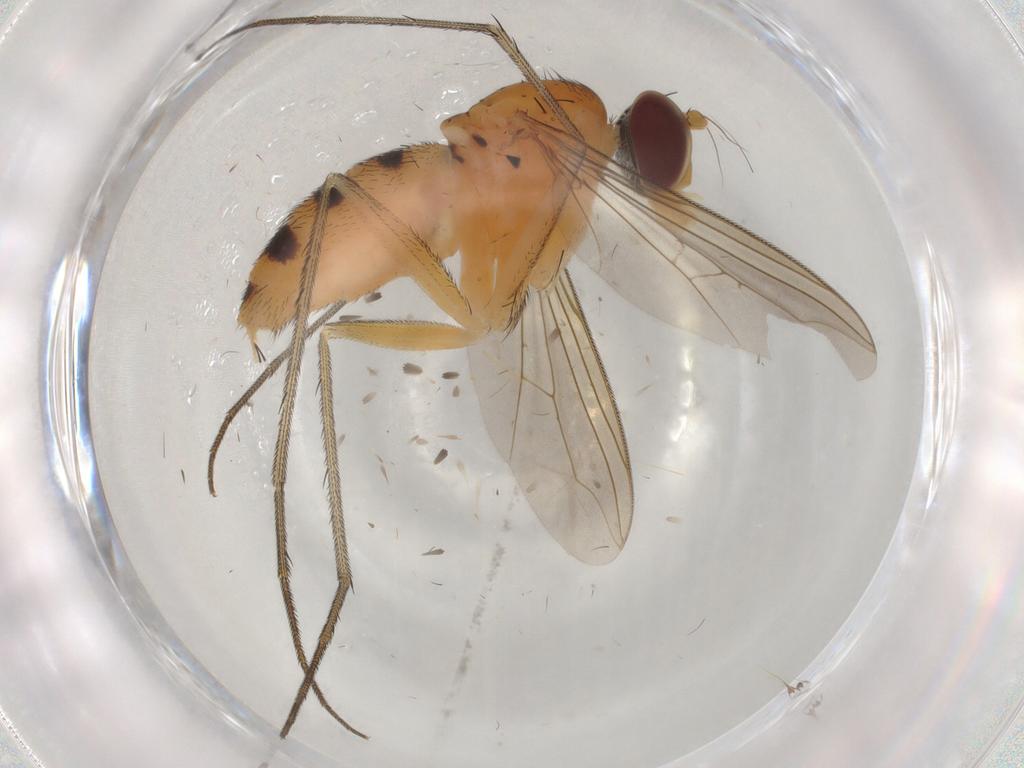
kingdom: Animalia
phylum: Arthropoda
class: Insecta
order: Diptera
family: Dolichopodidae
